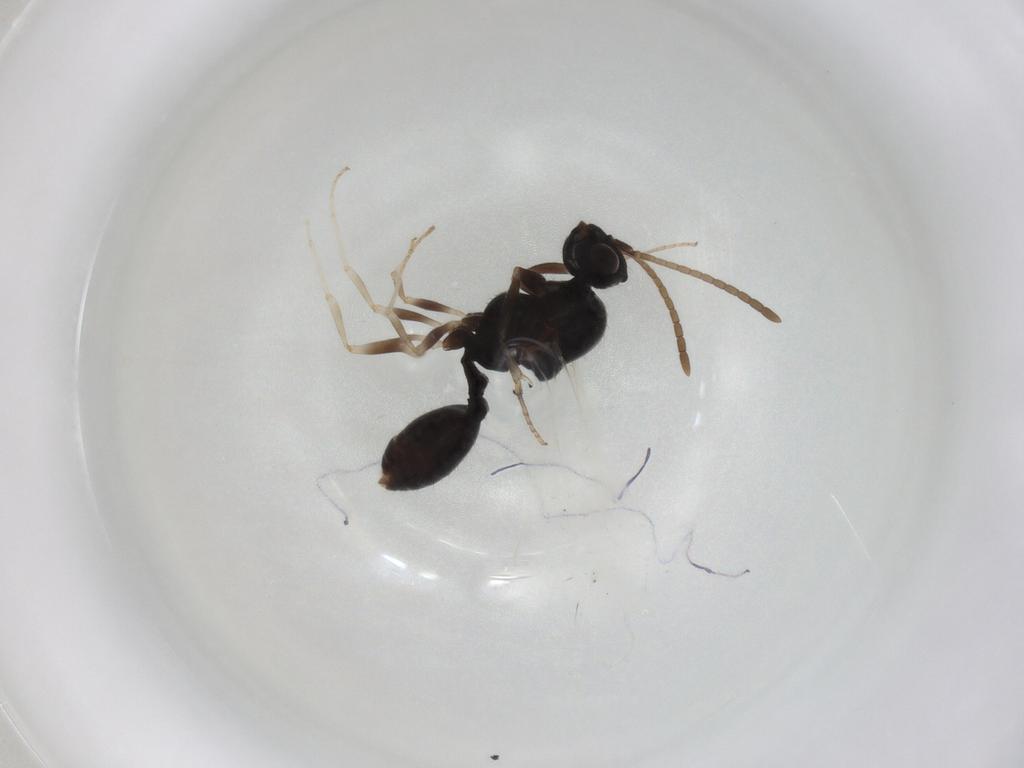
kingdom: Animalia
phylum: Arthropoda
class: Insecta
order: Hymenoptera
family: Formicidae
